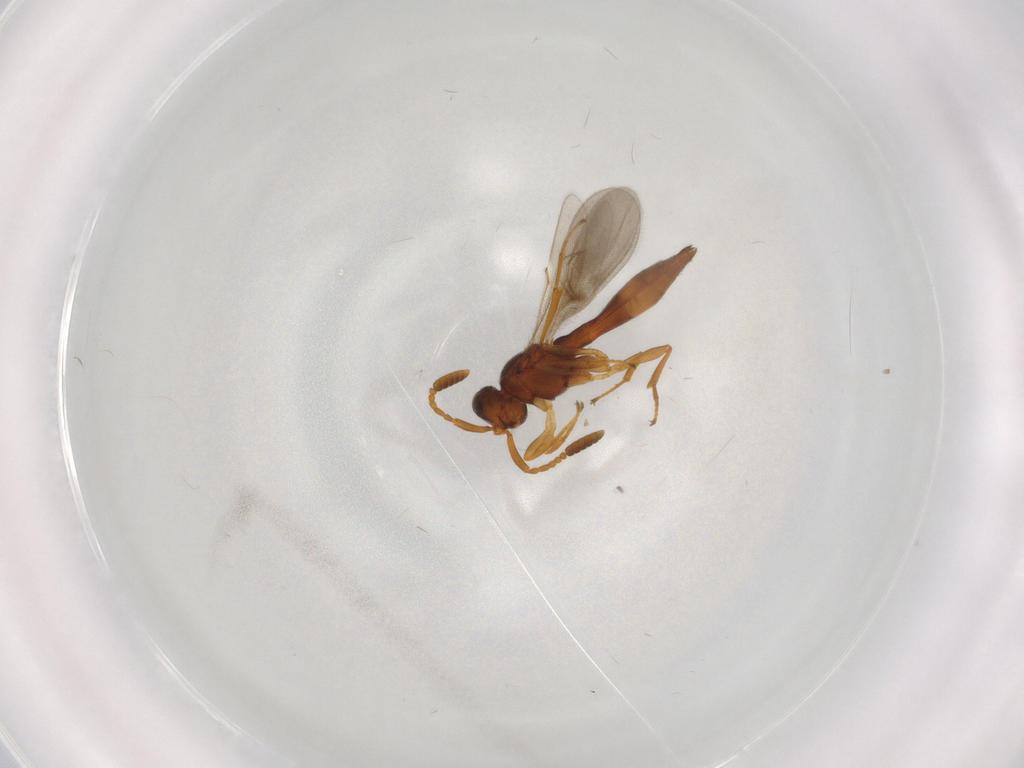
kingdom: Animalia
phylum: Arthropoda
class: Insecta
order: Hymenoptera
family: Scelionidae
